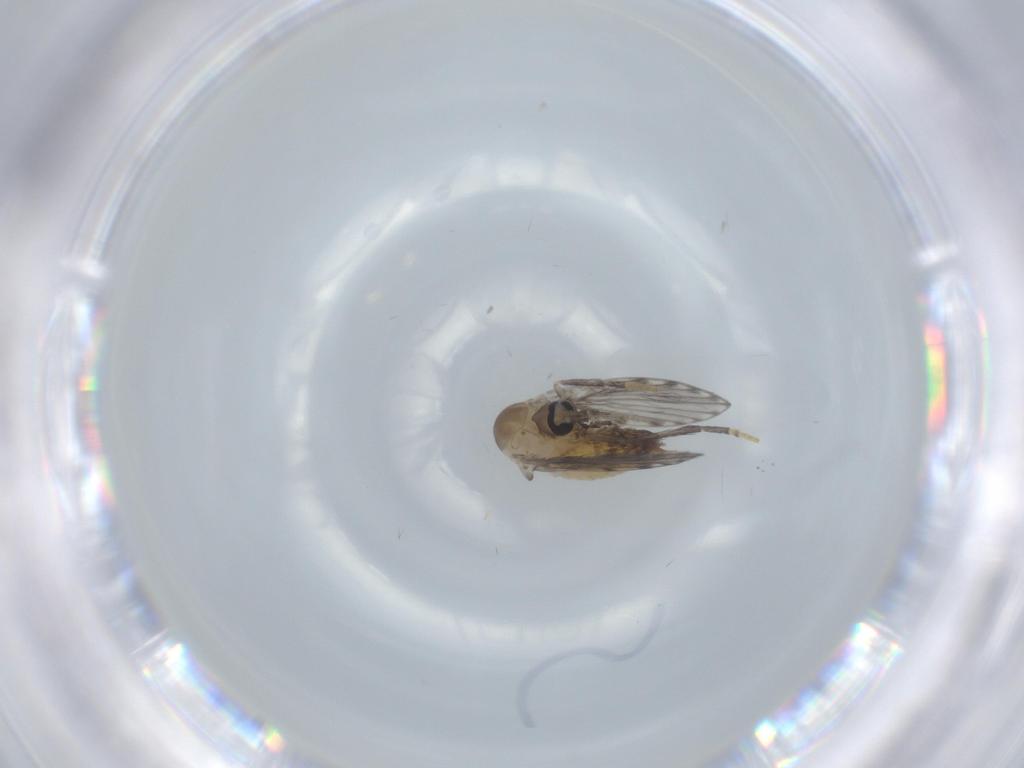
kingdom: Animalia
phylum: Arthropoda
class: Insecta
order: Diptera
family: Psychodidae
